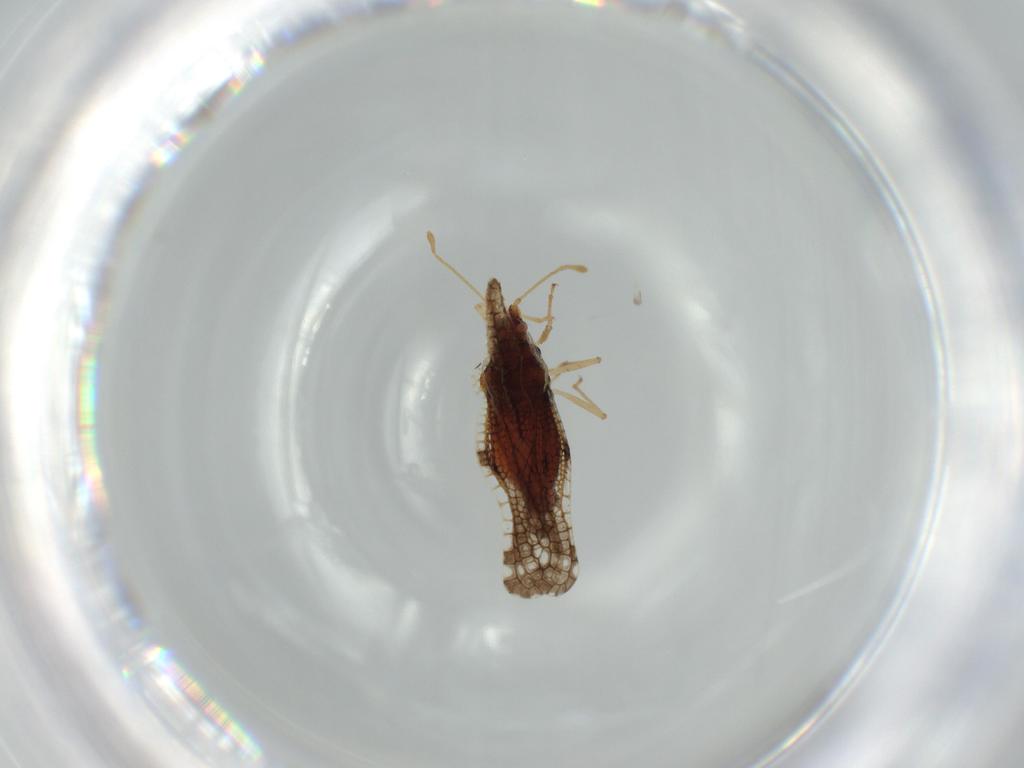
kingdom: Animalia
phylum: Arthropoda
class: Insecta
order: Hemiptera
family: Tingidae
